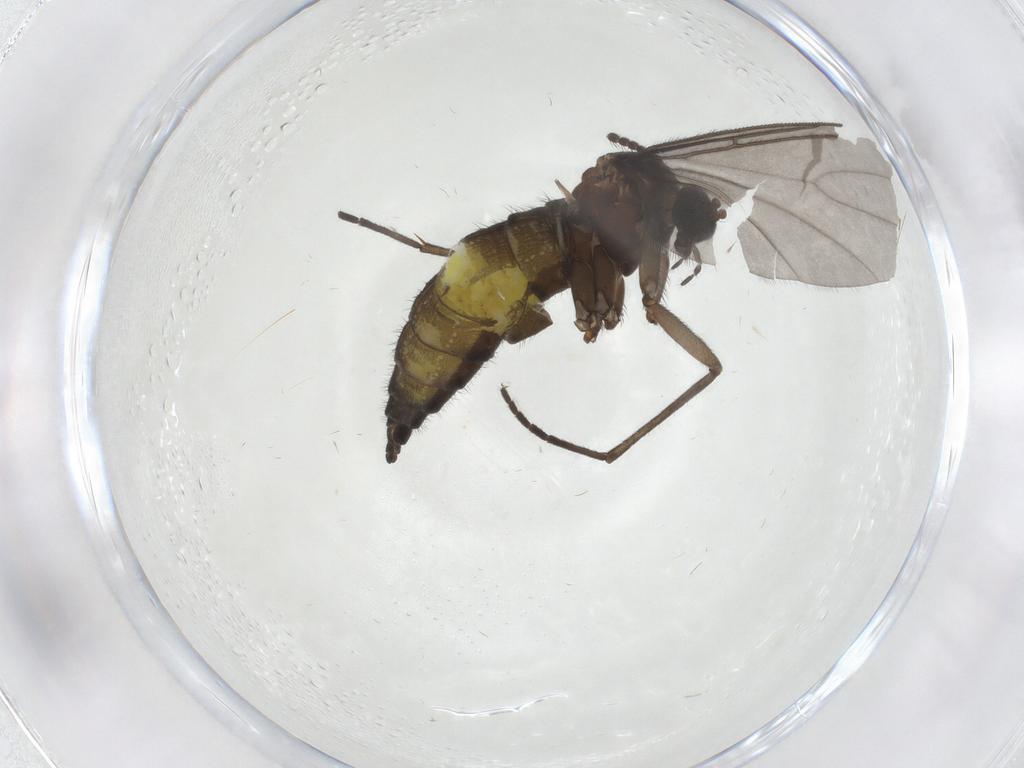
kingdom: Animalia
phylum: Arthropoda
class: Insecta
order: Diptera
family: Sciaridae
